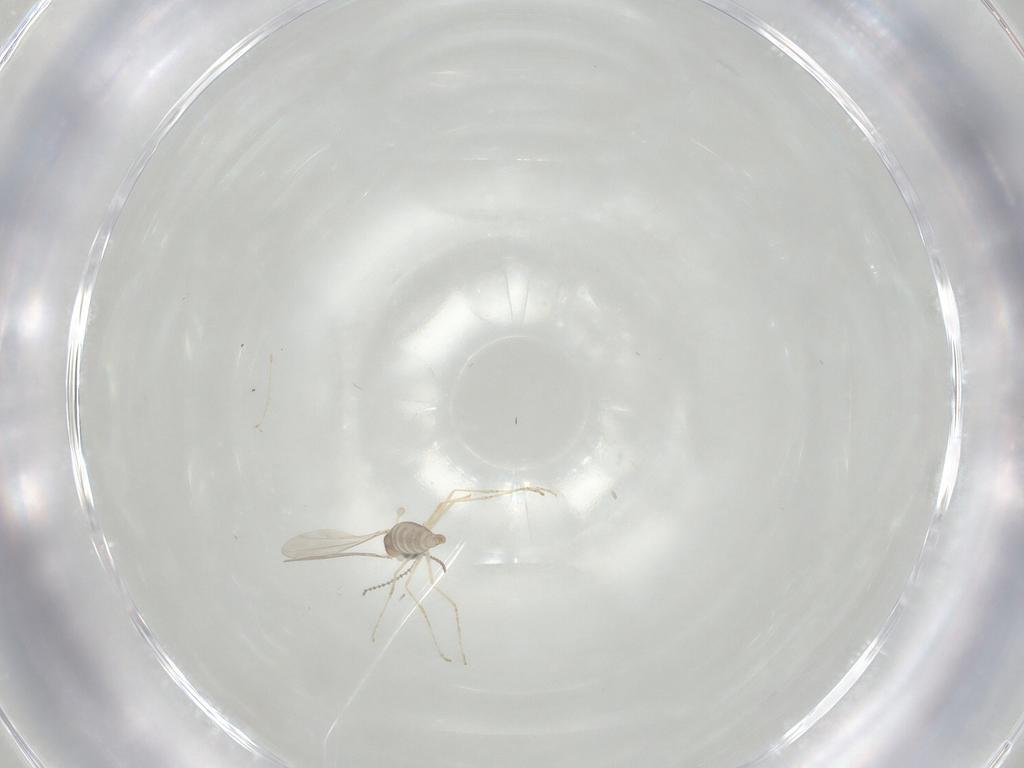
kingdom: Animalia
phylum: Arthropoda
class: Insecta
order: Diptera
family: Cecidomyiidae
